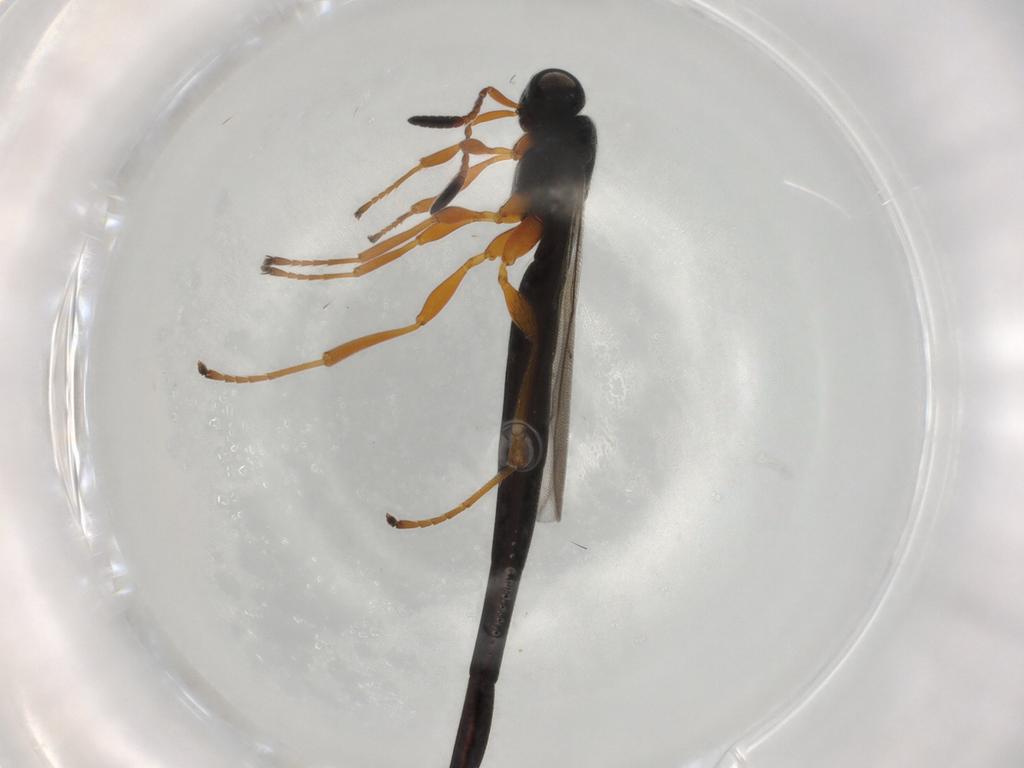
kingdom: Animalia
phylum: Arthropoda
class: Insecta
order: Hymenoptera
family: Scelionidae
